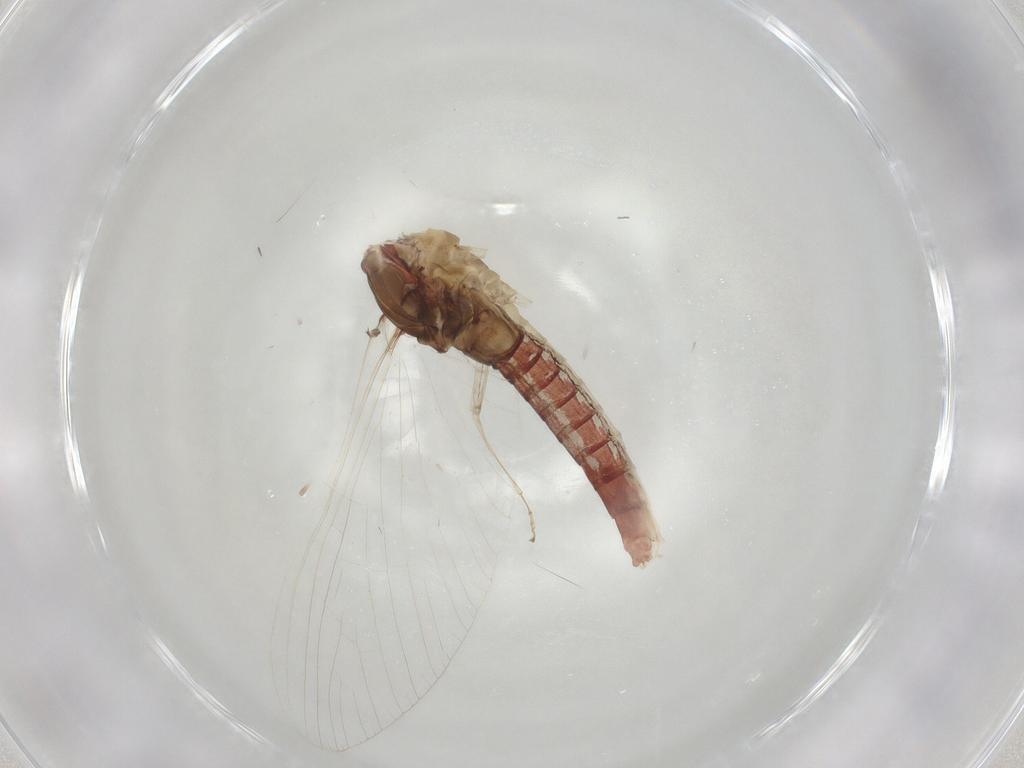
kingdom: Animalia
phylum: Arthropoda
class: Insecta
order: Ephemeroptera
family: Baetidae
